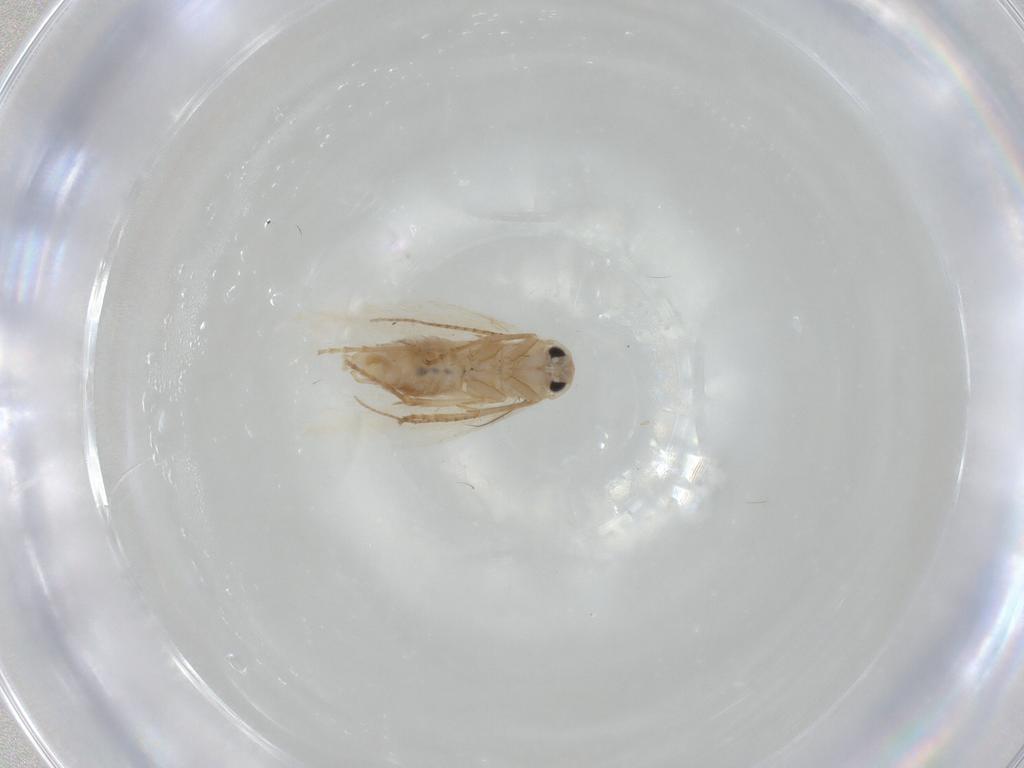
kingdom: Animalia
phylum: Arthropoda
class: Insecta
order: Lepidoptera
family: Bucculatricidae
